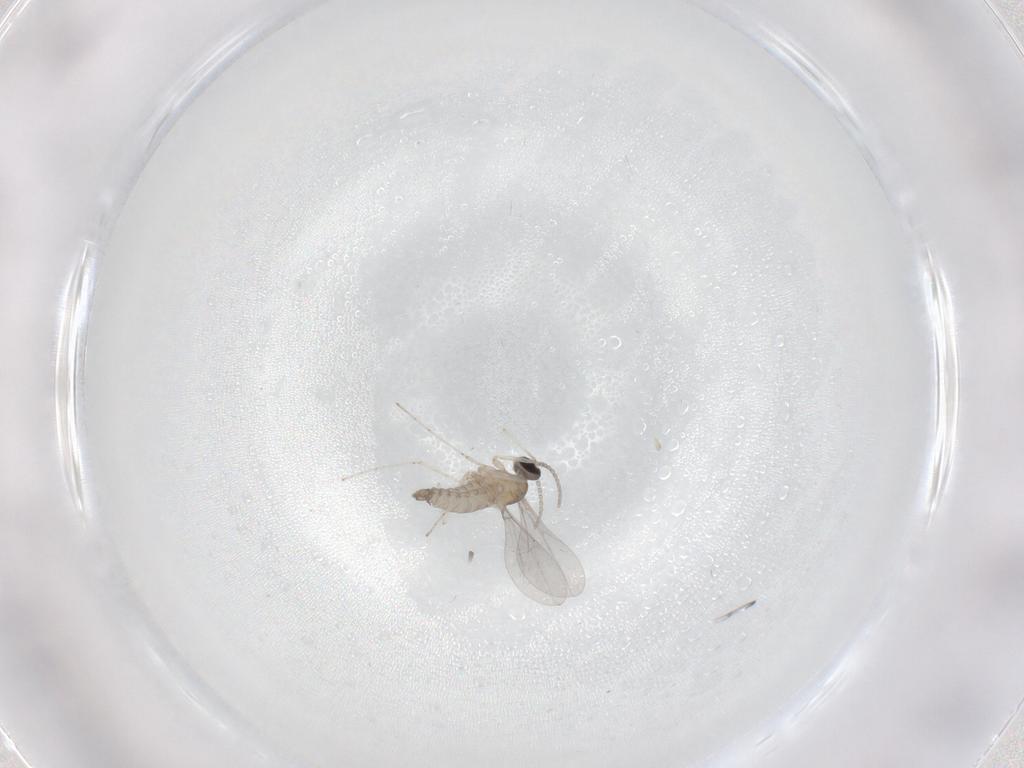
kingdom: Animalia
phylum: Arthropoda
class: Insecta
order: Diptera
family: Cecidomyiidae
